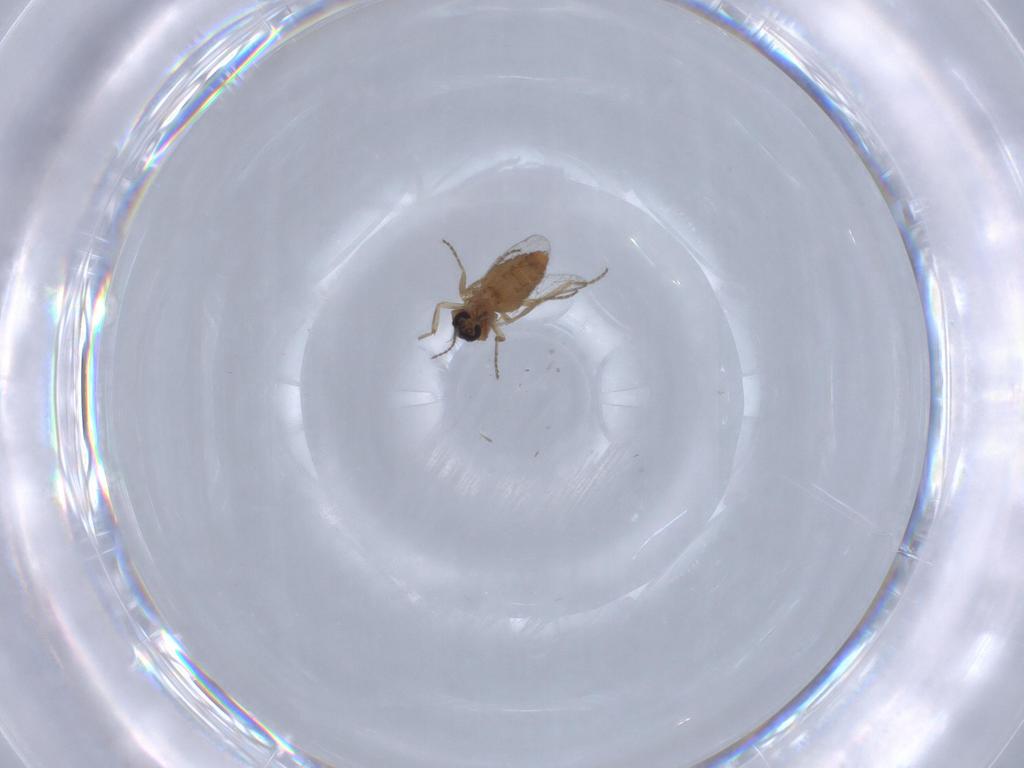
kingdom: Animalia
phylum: Arthropoda
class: Insecta
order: Diptera
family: Ceratopogonidae
